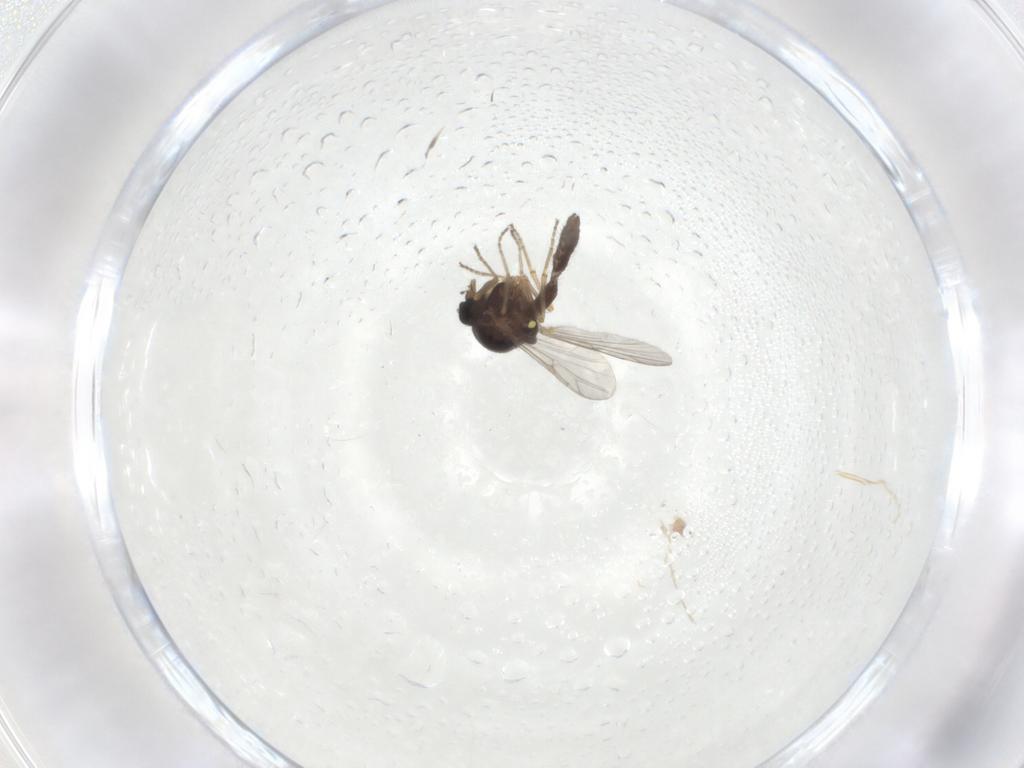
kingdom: Animalia
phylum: Arthropoda
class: Insecta
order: Diptera
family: Ceratopogonidae
